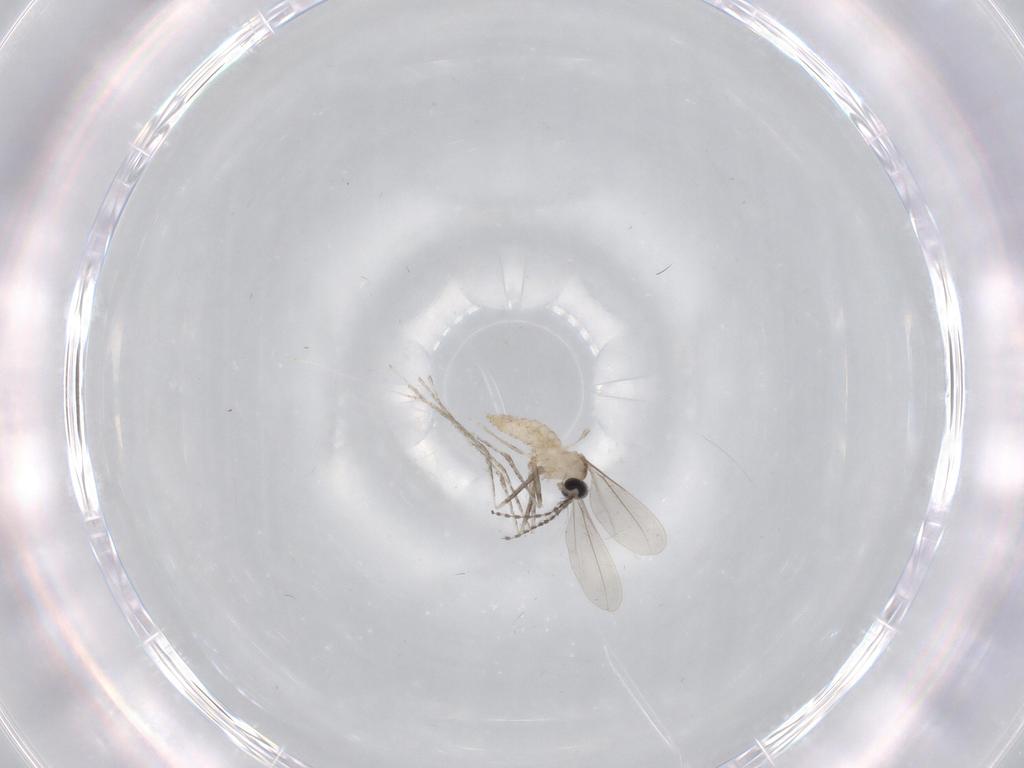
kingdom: Animalia
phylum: Arthropoda
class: Insecta
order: Diptera
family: Cecidomyiidae
